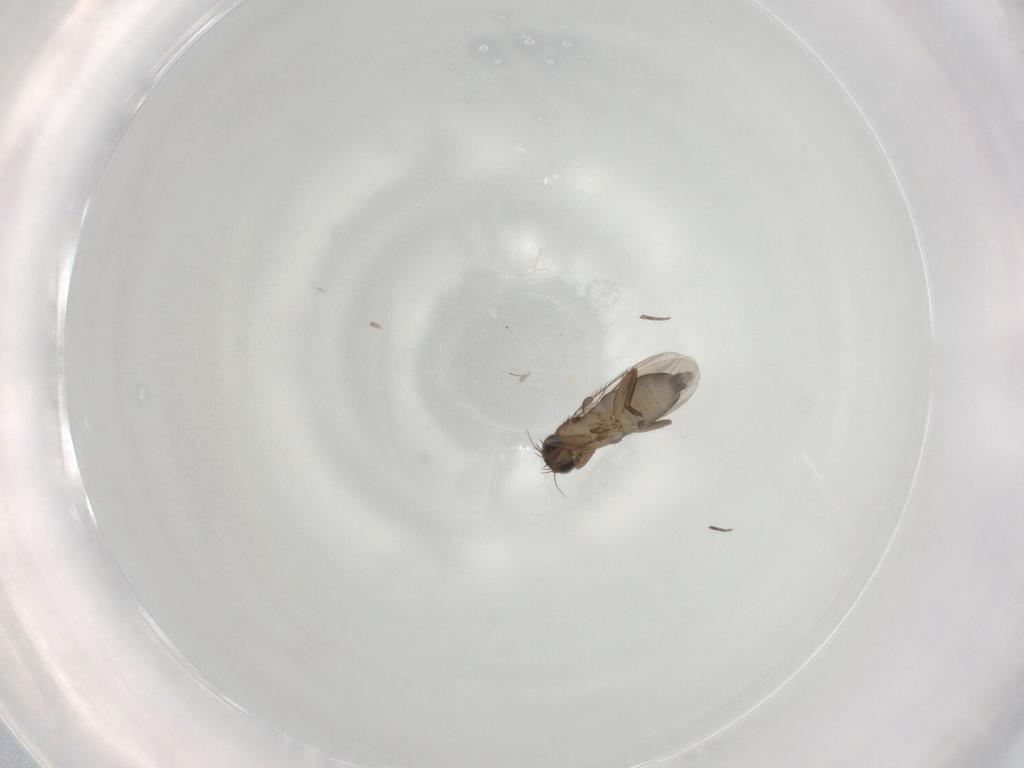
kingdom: Animalia
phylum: Arthropoda
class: Insecta
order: Diptera
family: Phoridae
